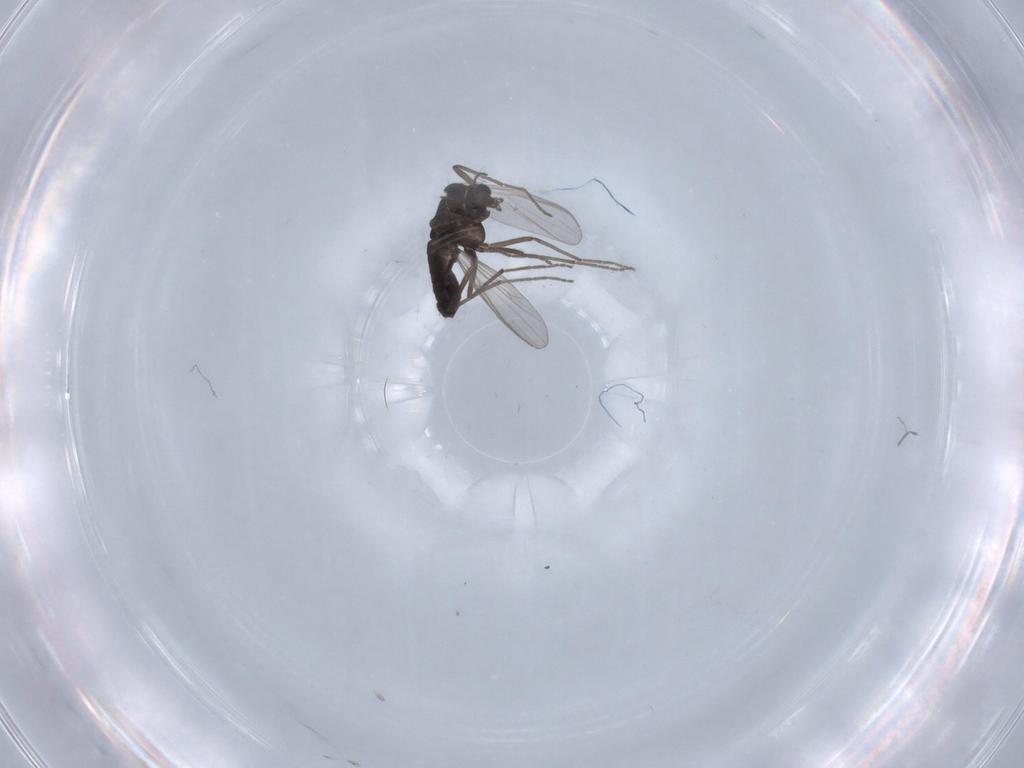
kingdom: Animalia
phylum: Arthropoda
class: Insecta
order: Diptera
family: Chironomidae
